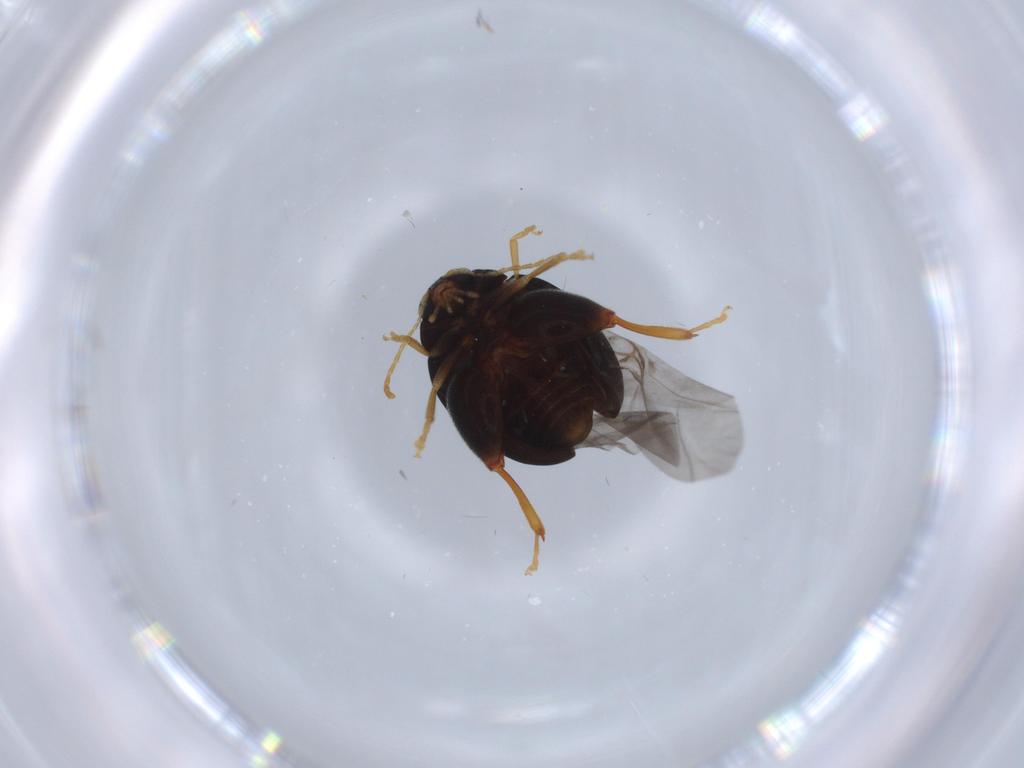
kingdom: Animalia
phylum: Arthropoda
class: Insecta
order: Coleoptera
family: Chrysomelidae
